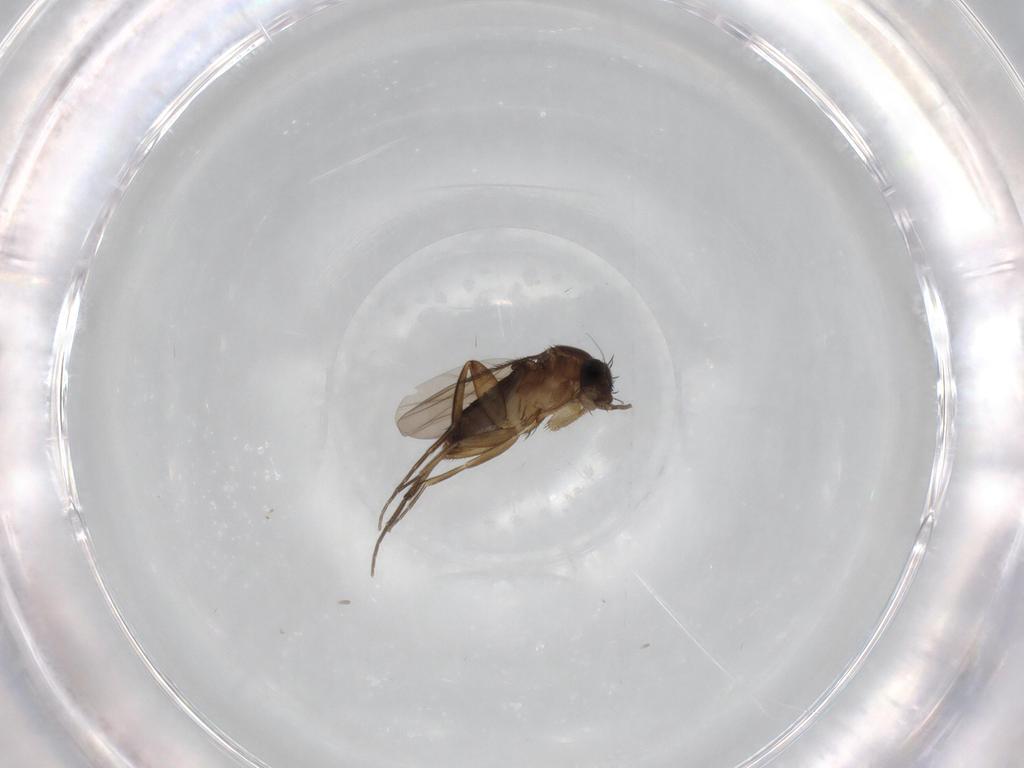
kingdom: Animalia
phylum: Arthropoda
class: Insecta
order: Diptera
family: Phoridae
